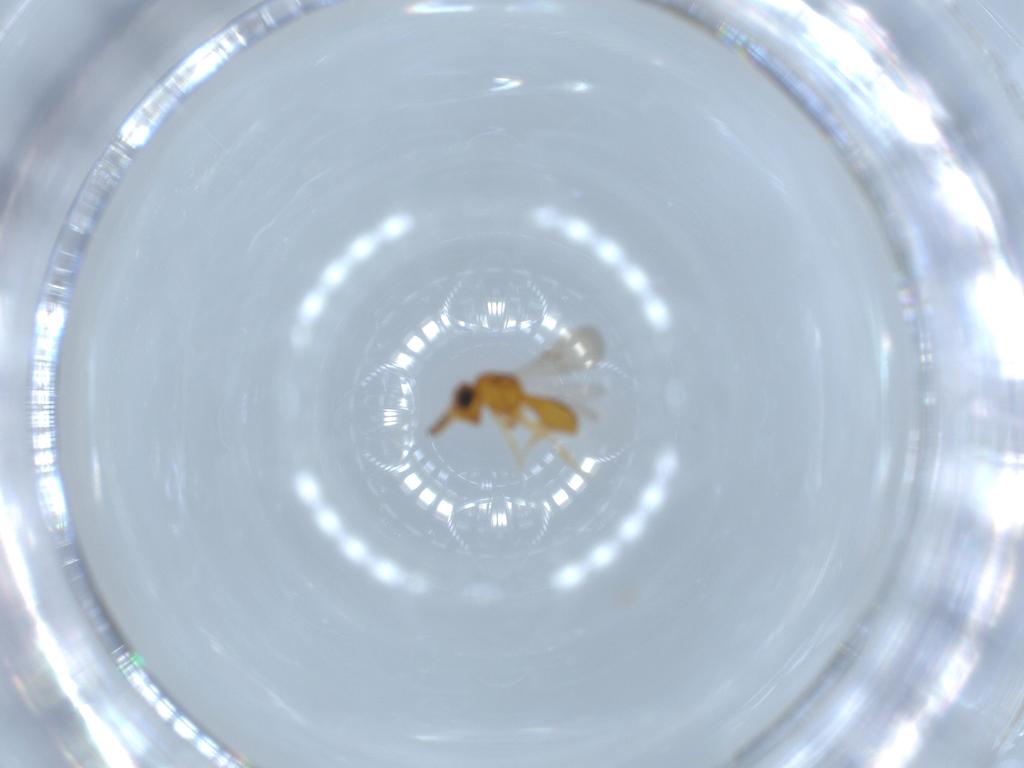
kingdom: Animalia
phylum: Arthropoda
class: Insecta
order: Hymenoptera
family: Scelionidae
